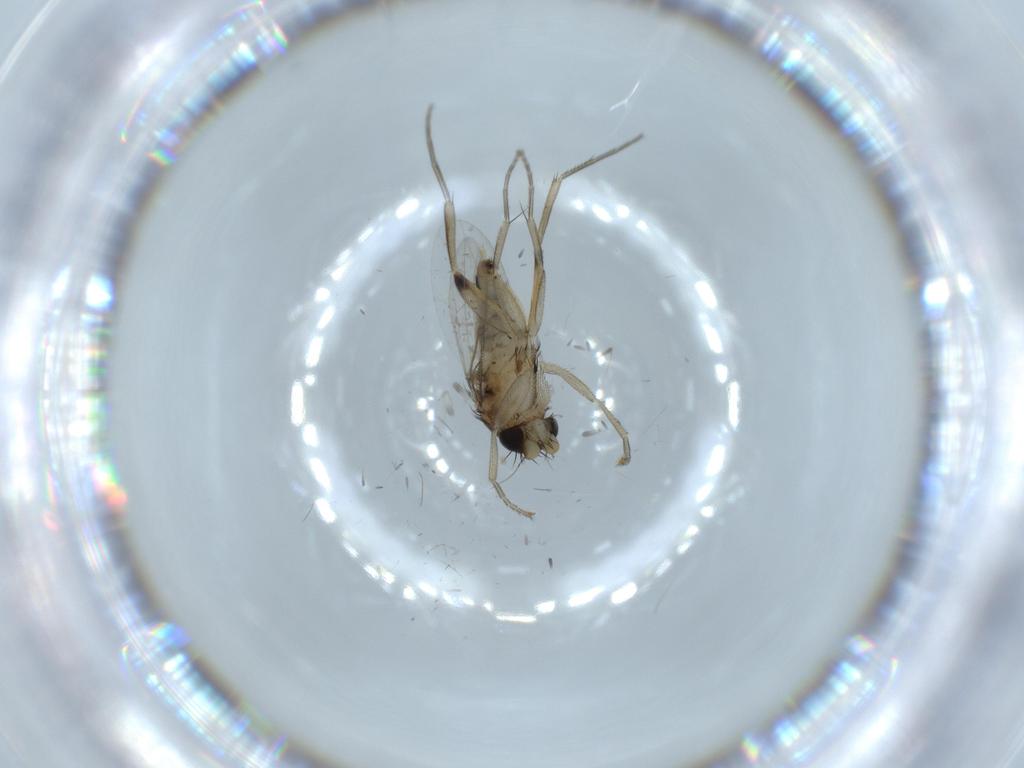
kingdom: Animalia
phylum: Arthropoda
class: Insecta
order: Diptera
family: Phoridae
